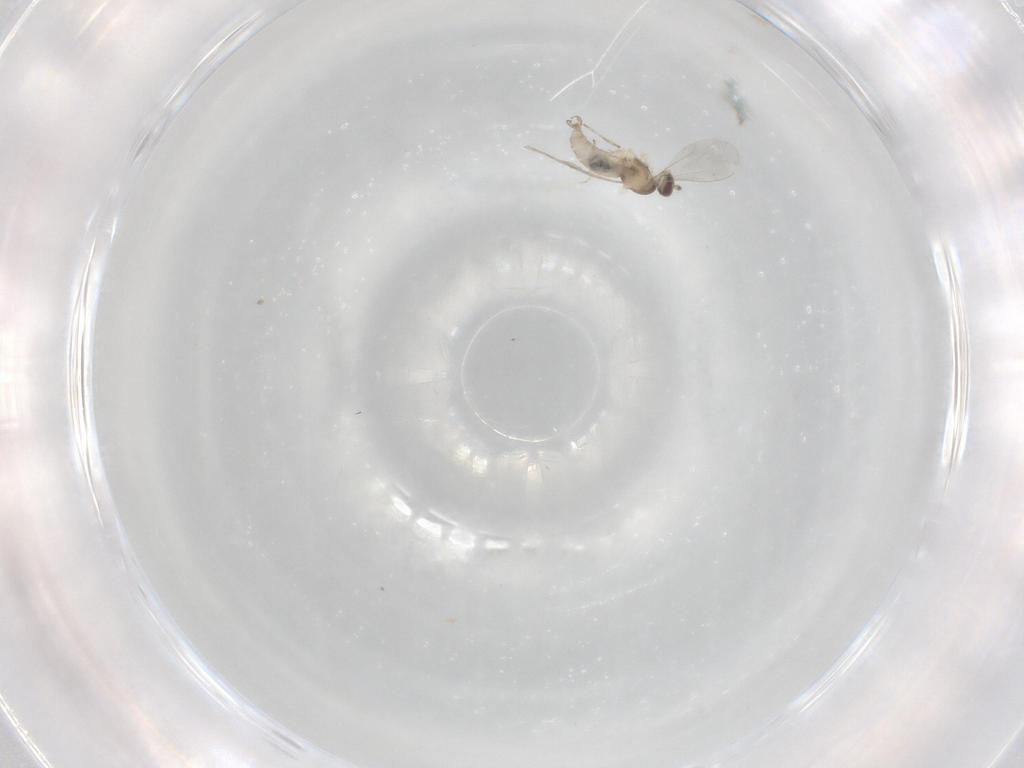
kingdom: Animalia
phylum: Arthropoda
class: Insecta
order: Diptera
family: Cecidomyiidae
